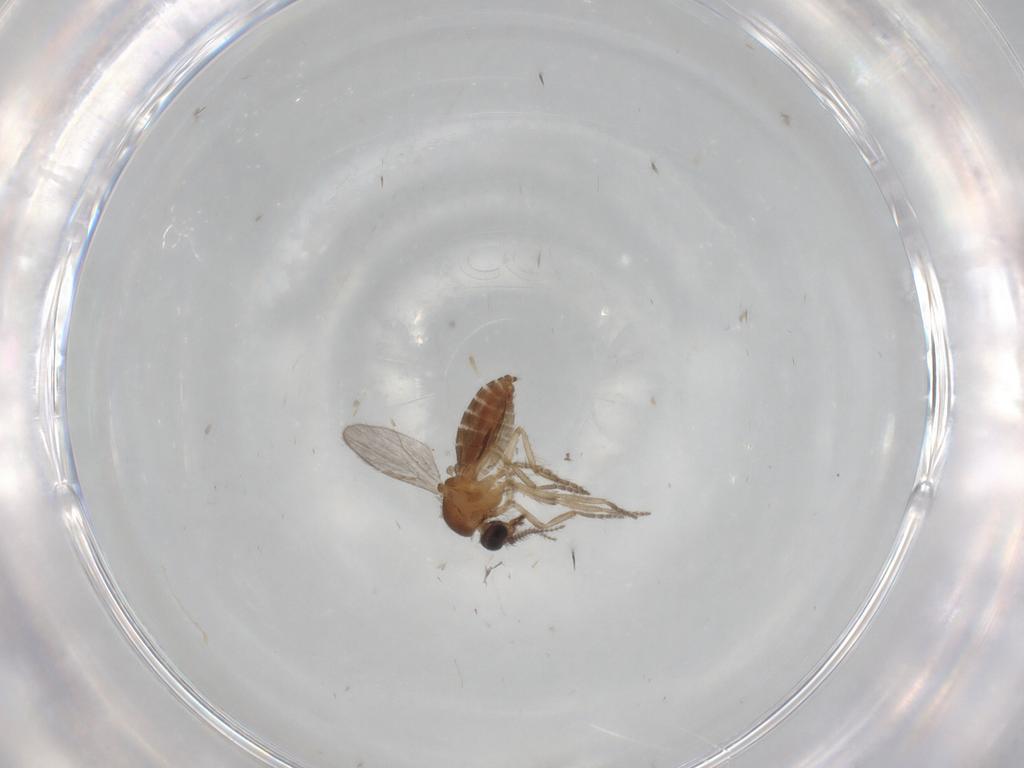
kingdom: Animalia
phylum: Arthropoda
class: Insecta
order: Diptera
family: Ceratopogonidae
